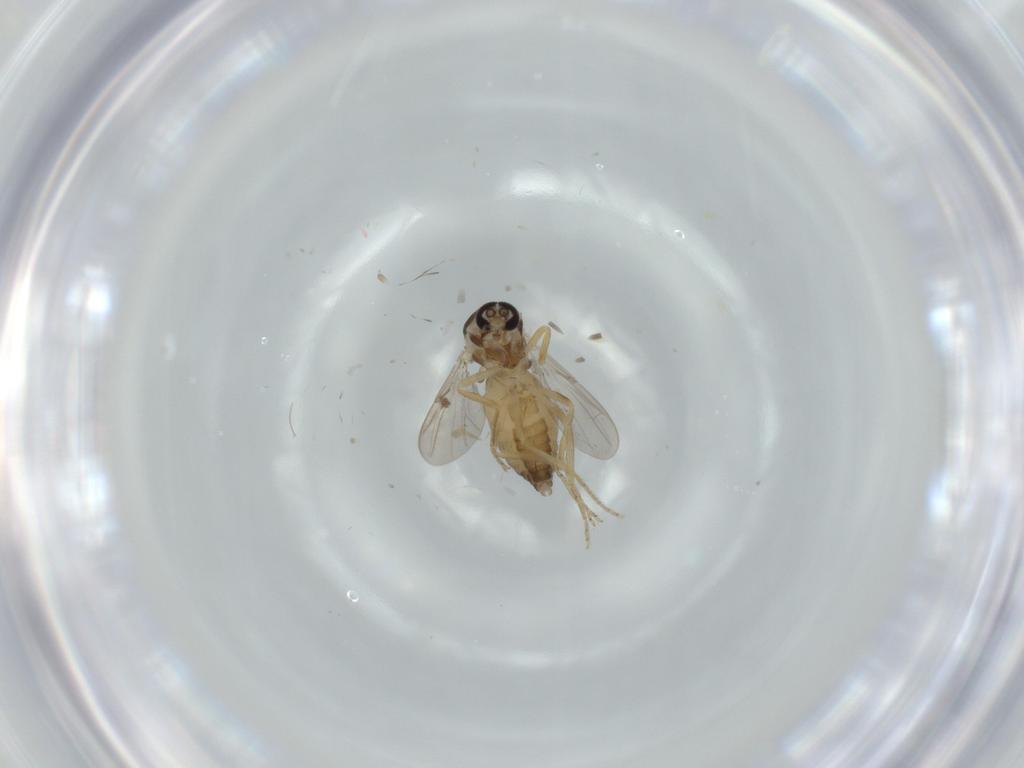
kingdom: Animalia
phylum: Arthropoda
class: Insecta
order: Diptera
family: Ceratopogonidae
